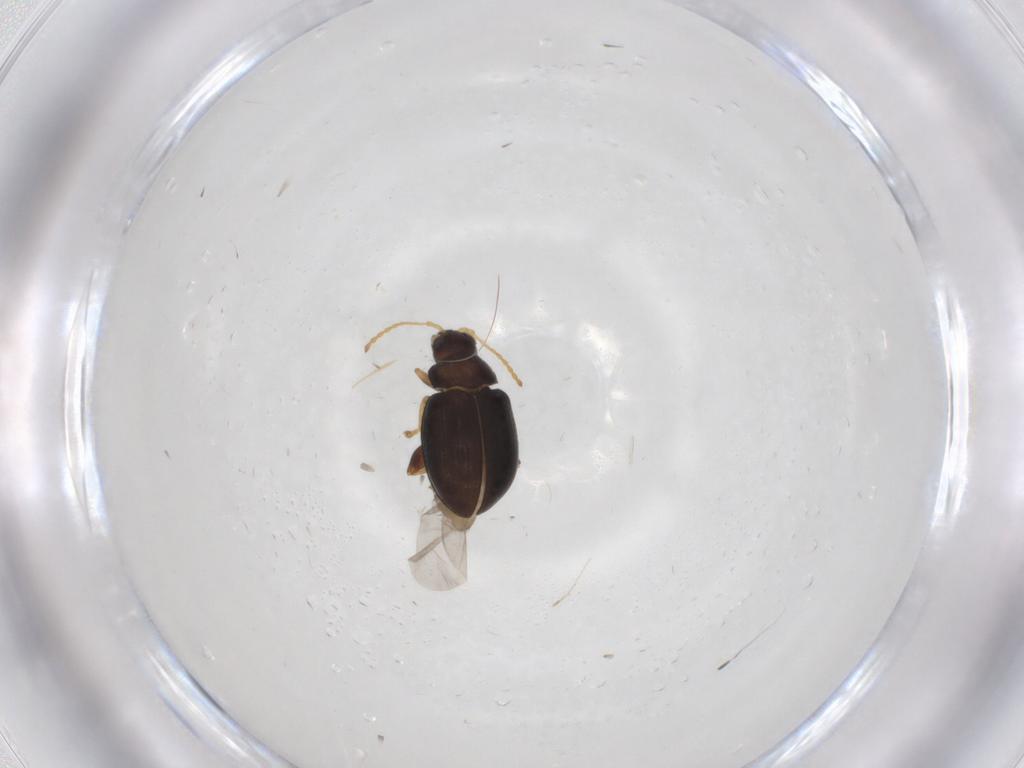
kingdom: Animalia
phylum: Arthropoda
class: Insecta
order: Coleoptera
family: Chrysomelidae
